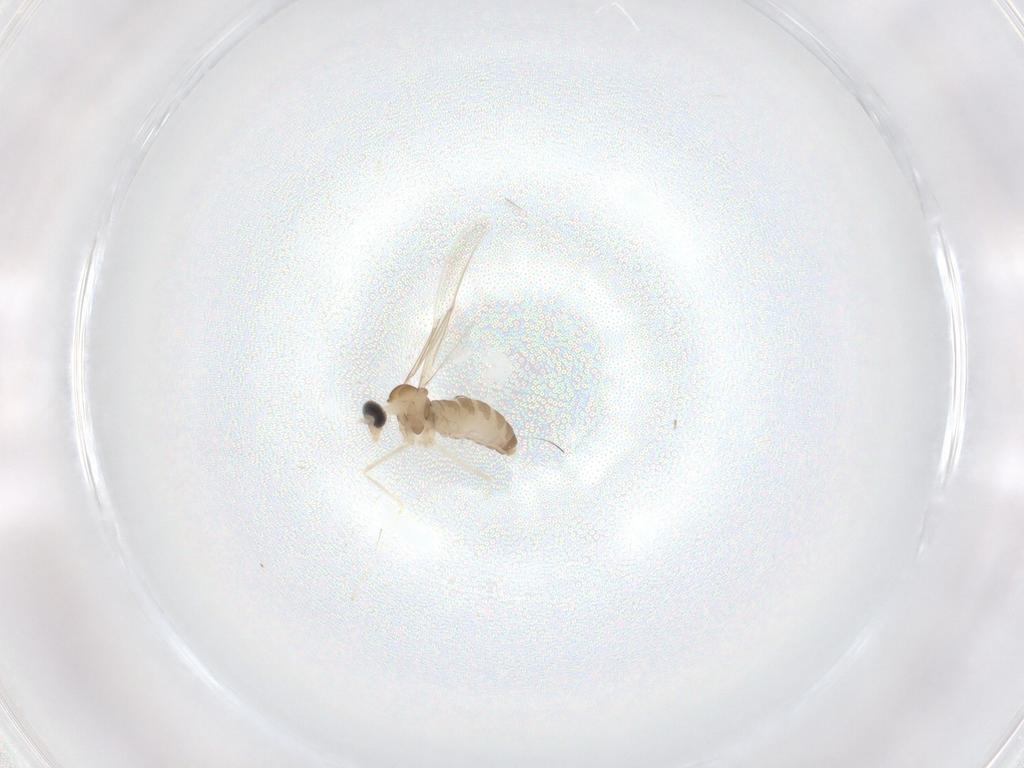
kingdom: Animalia
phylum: Arthropoda
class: Insecta
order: Diptera
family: Cecidomyiidae
